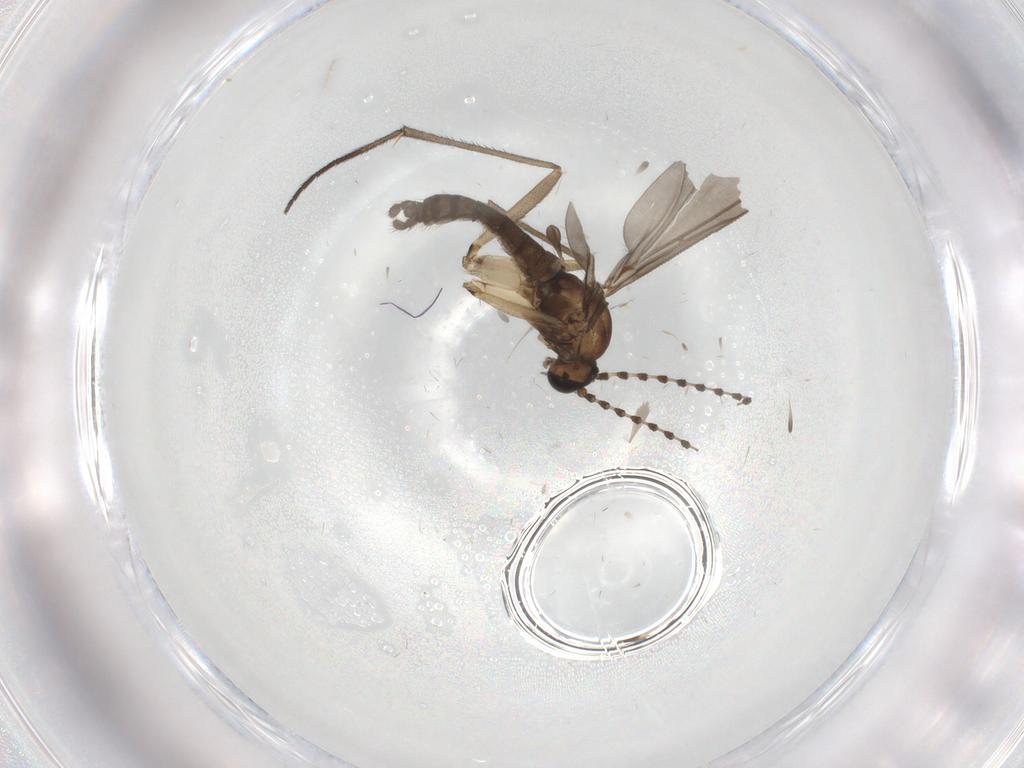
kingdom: Animalia
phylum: Arthropoda
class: Insecta
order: Diptera
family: Sciaridae
